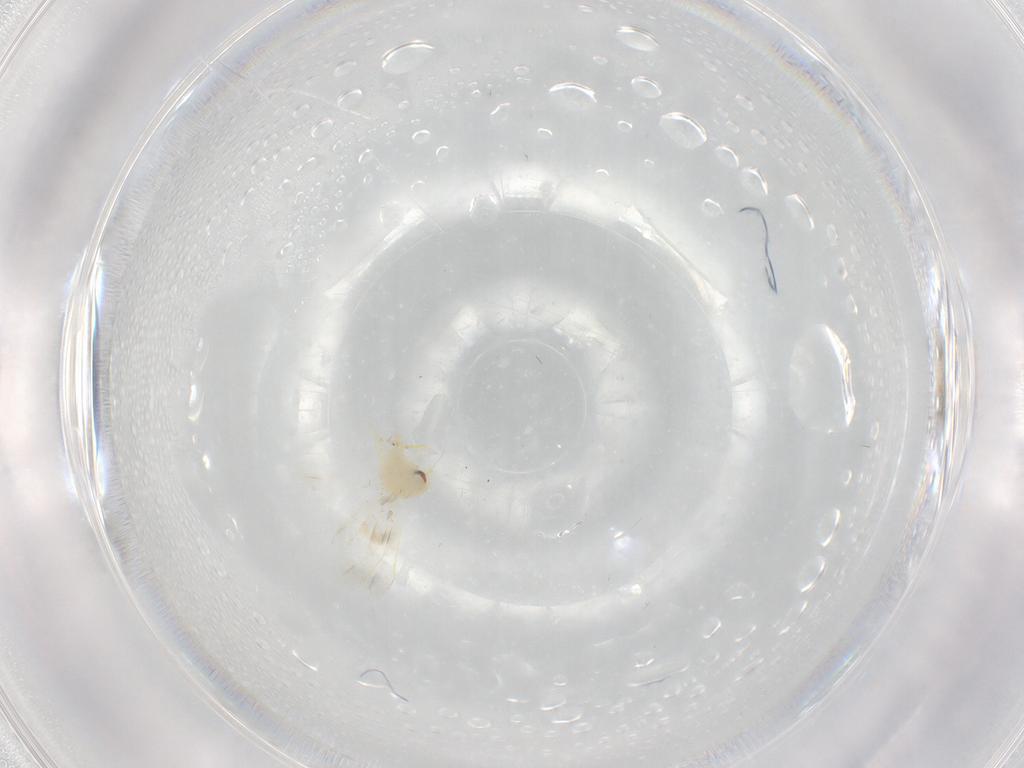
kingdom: Animalia
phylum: Arthropoda
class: Insecta
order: Hemiptera
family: Aleyrodidae
